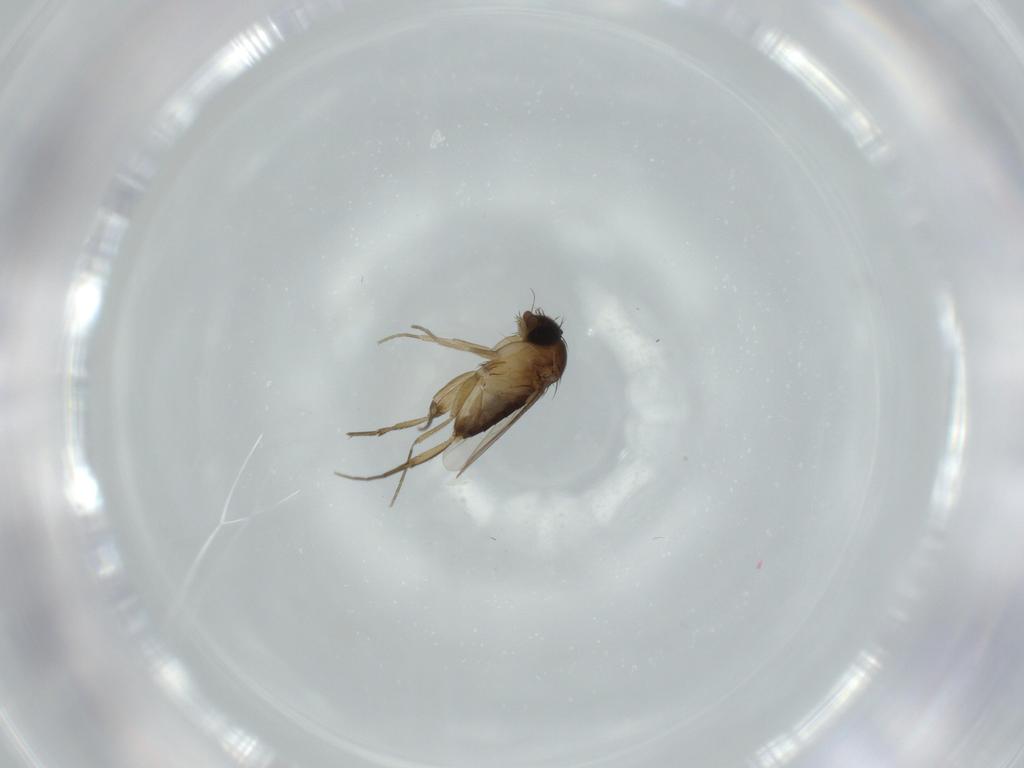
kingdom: Animalia
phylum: Arthropoda
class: Insecta
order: Diptera
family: Phoridae
